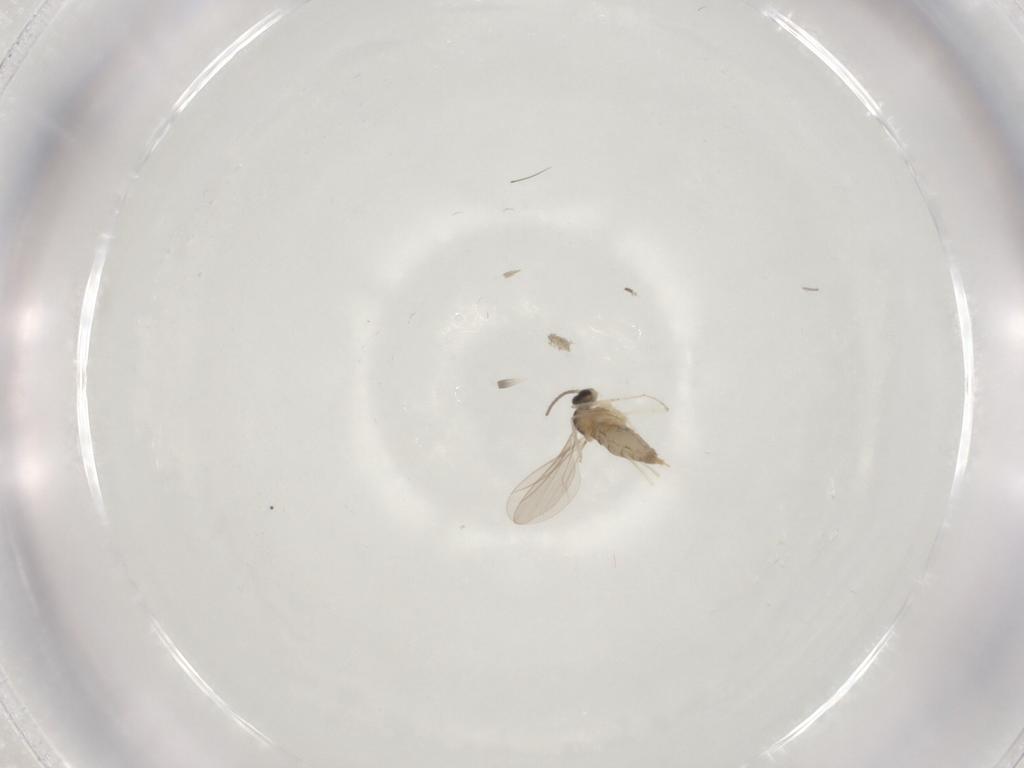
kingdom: Animalia
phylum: Arthropoda
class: Insecta
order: Diptera
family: Cecidomyiidae
